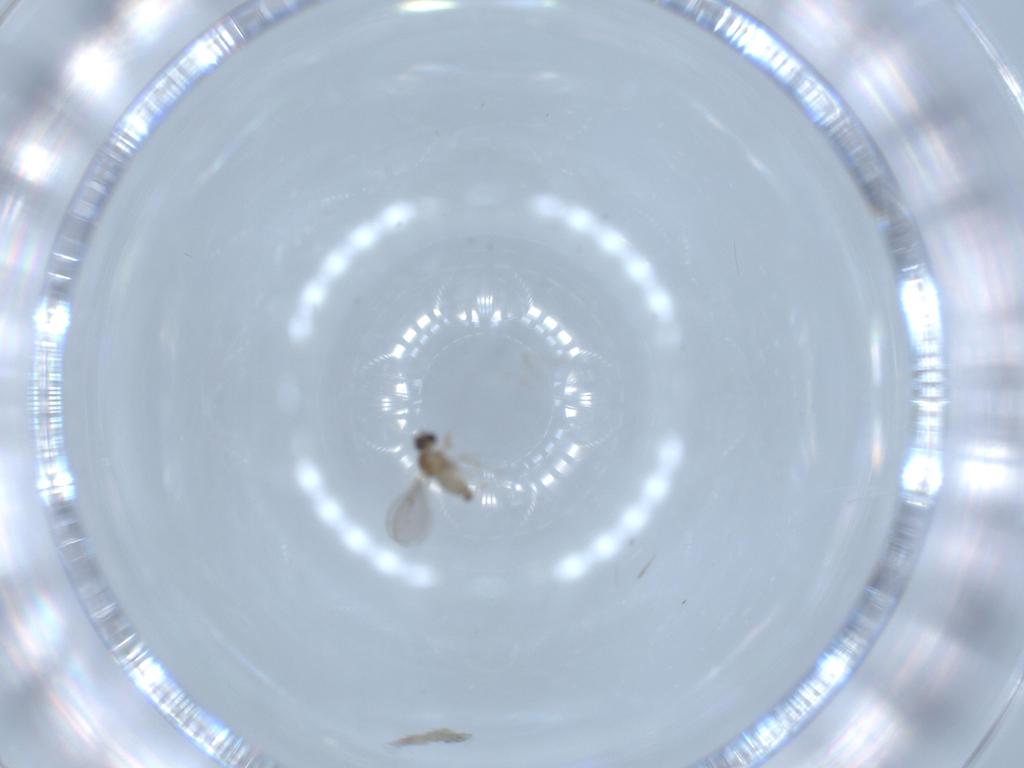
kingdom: Animalia
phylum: Arthropoda
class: Insecta
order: Diptera
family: Cecidomyiidae
